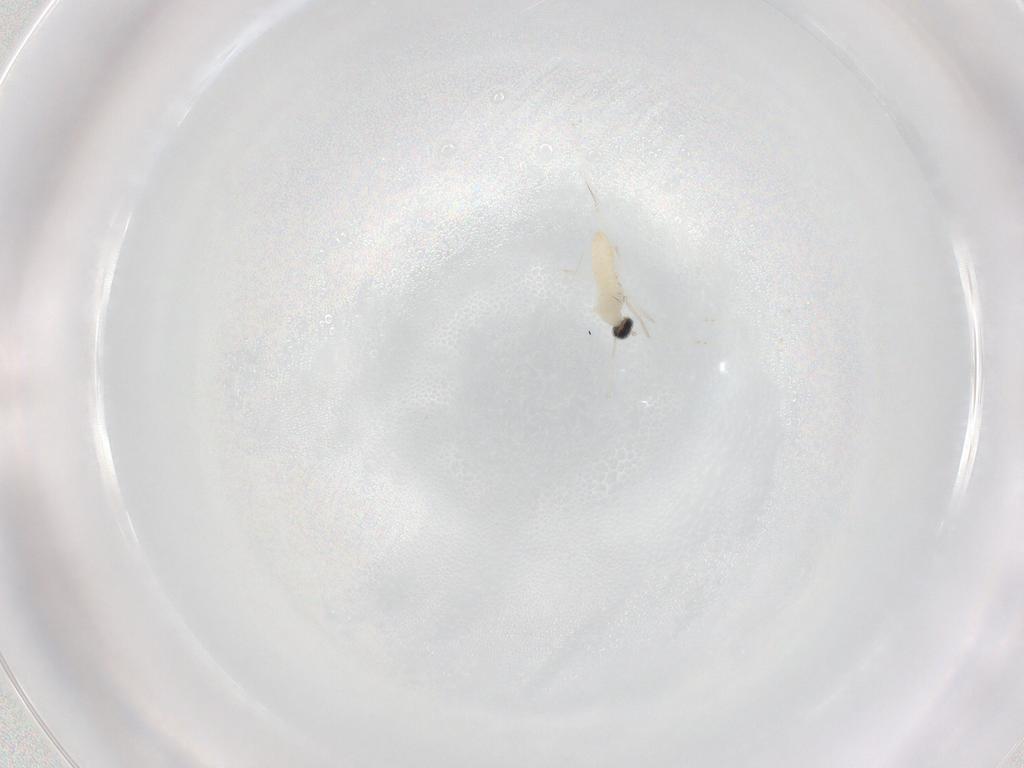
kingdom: Animalia
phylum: Arthropoda
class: Insecta
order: Diptera
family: Cecidomyiidae
